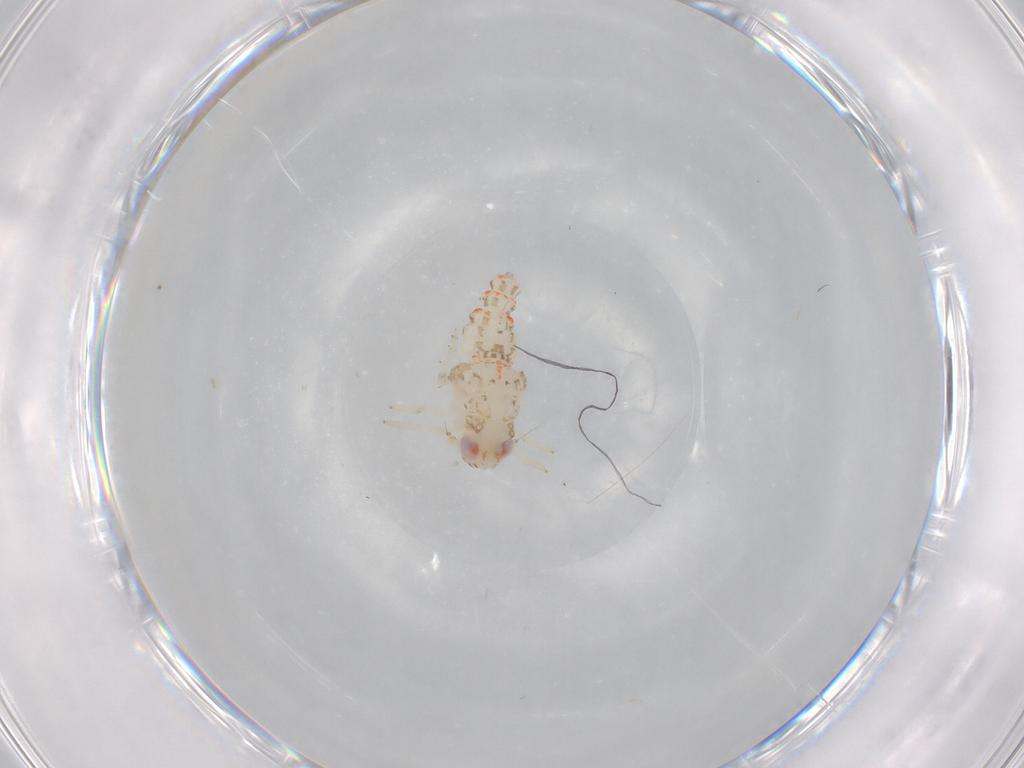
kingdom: Animalia
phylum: Arthropoda
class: Insecta
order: Hemiptera
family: Nogodinidae
